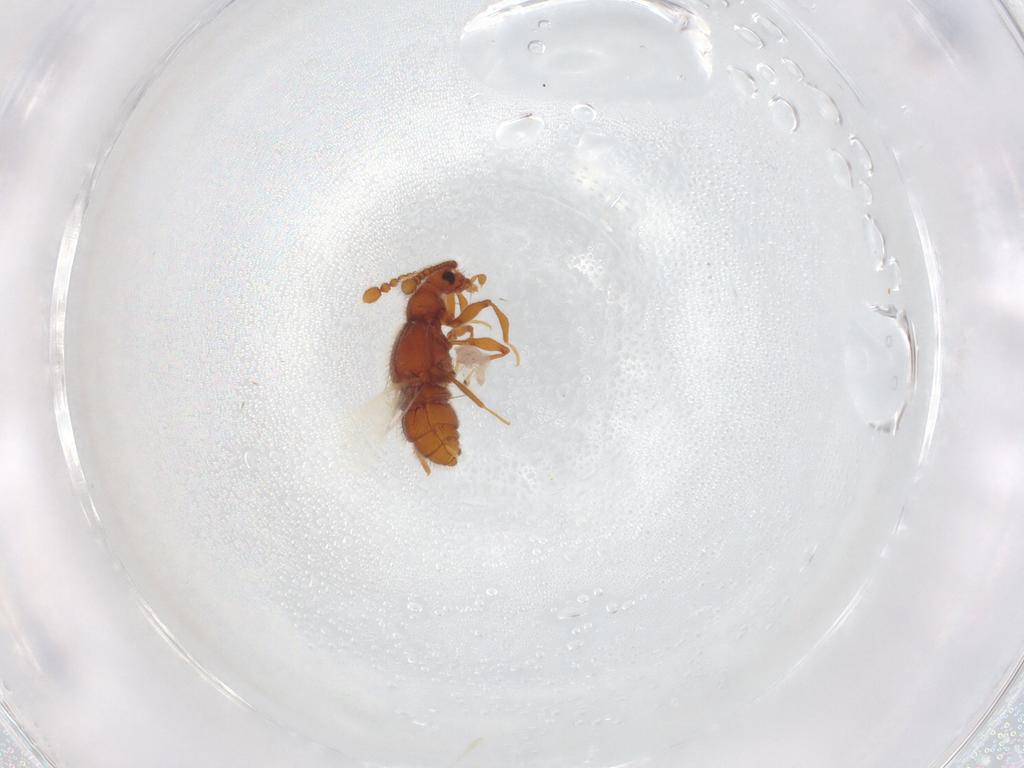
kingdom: Animalia
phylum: Arthropoda
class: Insecta
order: Coleoptera
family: Staphylinidae
